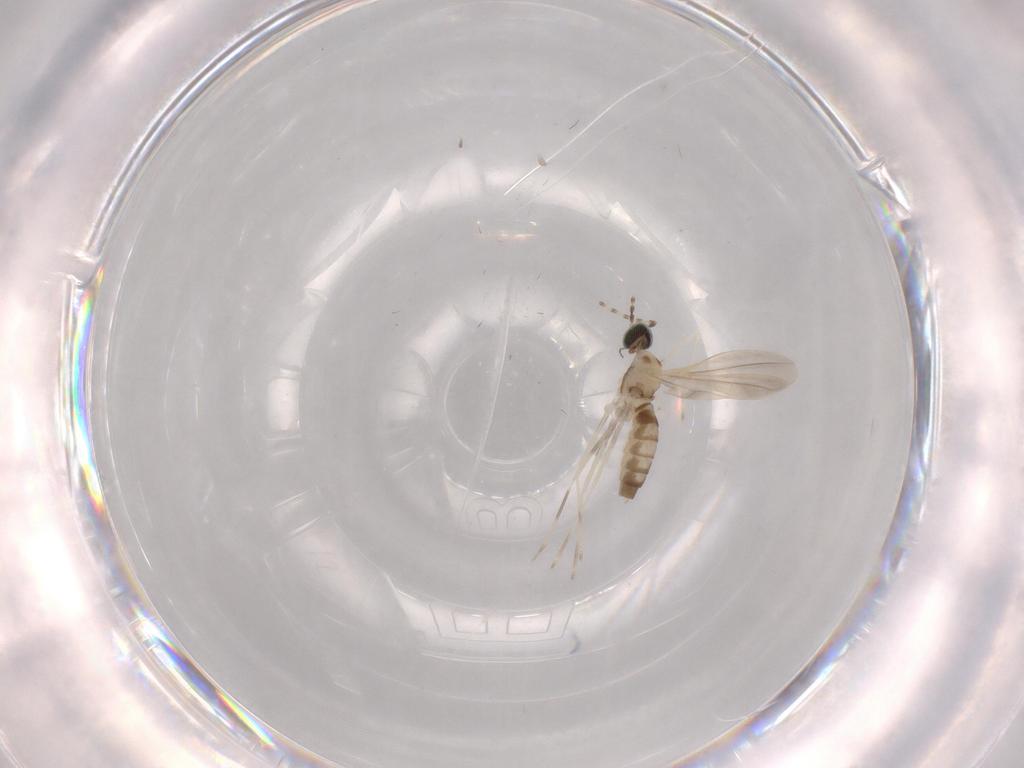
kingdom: Animalia
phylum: Arthropoda
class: Insecta
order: Diptera
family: Cecidomyiidae
